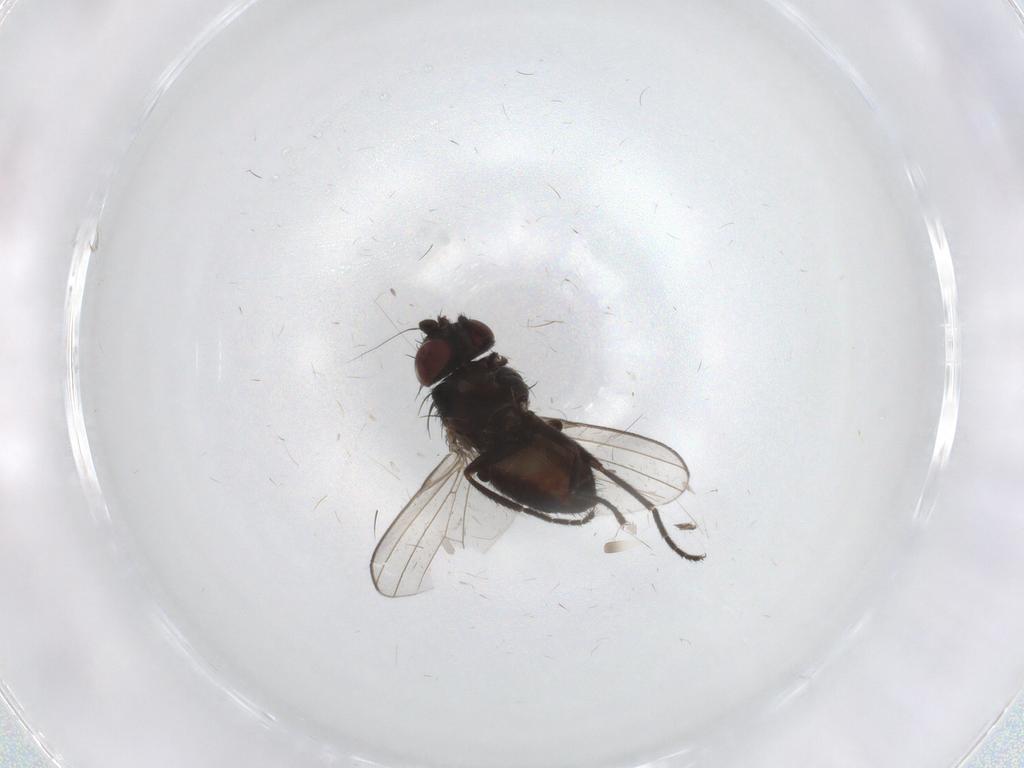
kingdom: Animalia
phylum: Arthropoda
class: Insecta
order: Diptera
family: Milichiidae
